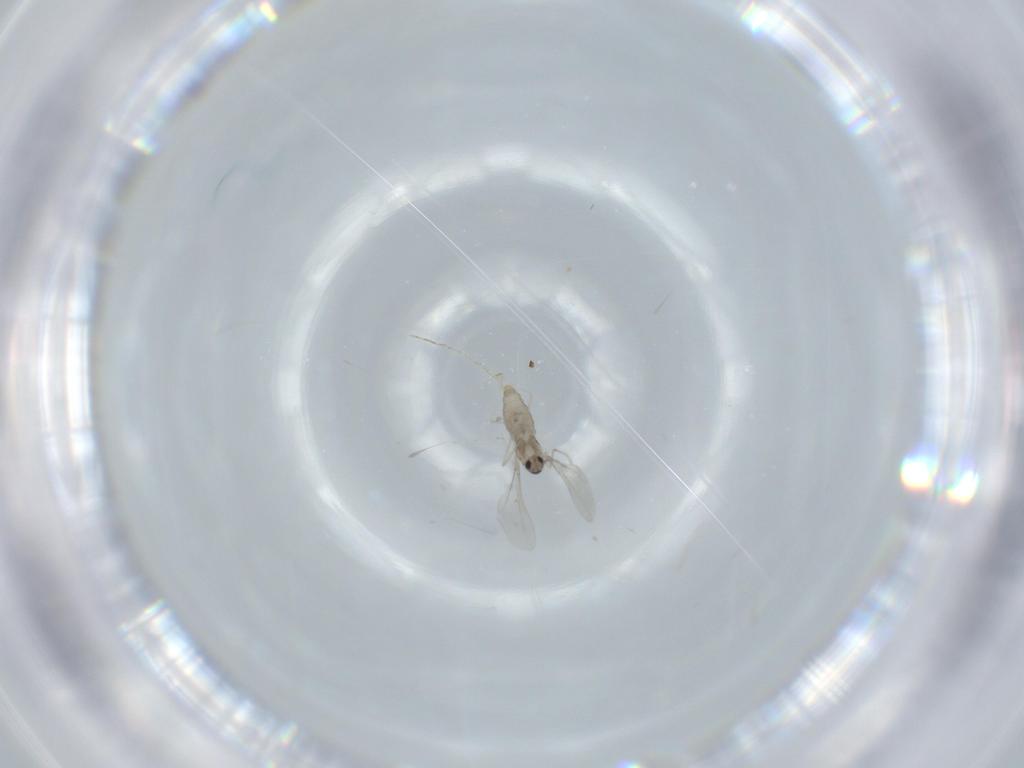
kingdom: Animalia
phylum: Arthropoda
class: Insecta
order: Diptera
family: Cecidomyiidae
